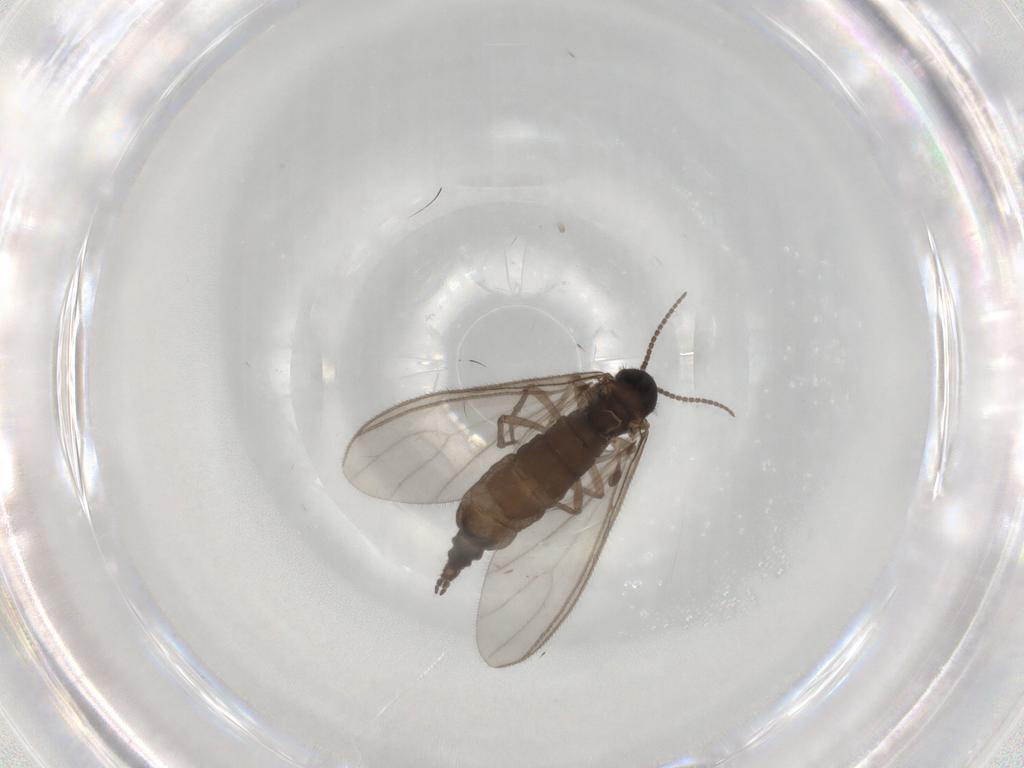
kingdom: Animalia
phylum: Arthropoda
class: Insecta
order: Diptera
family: Sciaridae
